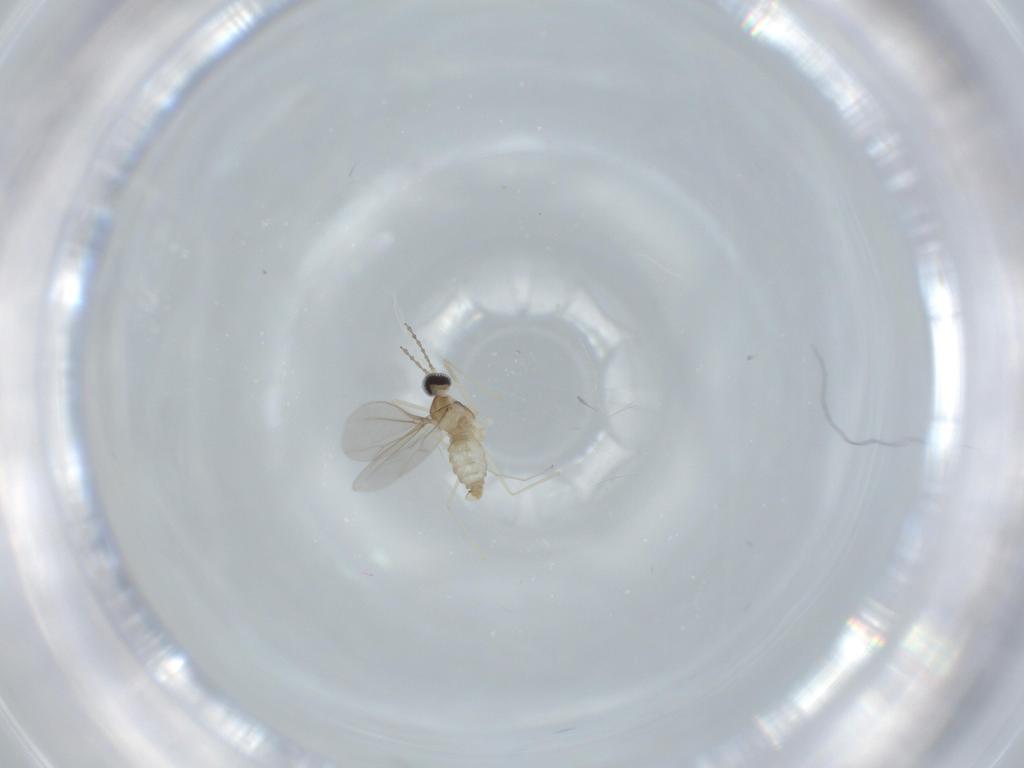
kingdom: Animalia
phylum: Arthropoda
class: Insecta
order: Diptera
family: Cecidomyiidae
